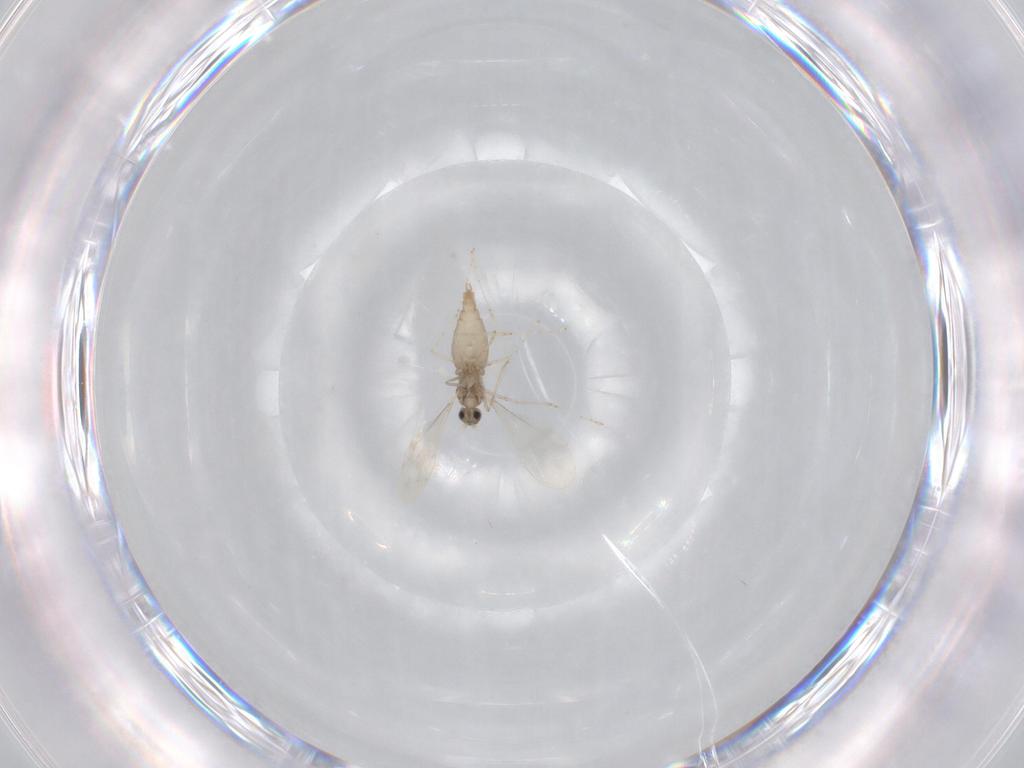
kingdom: Animalia
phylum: Arthropoda
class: Insecta
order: Diptera
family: Cecidomyiidae
